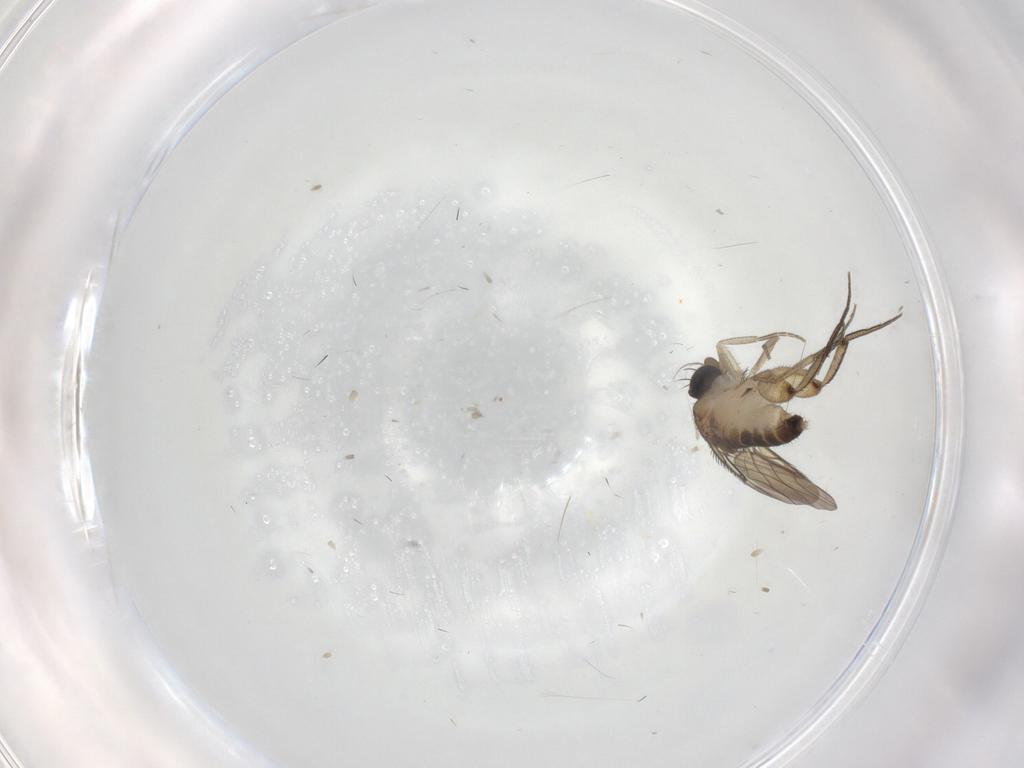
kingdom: Animalia
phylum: Arthropoda
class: Insecta
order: Diptera
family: Phoridae
